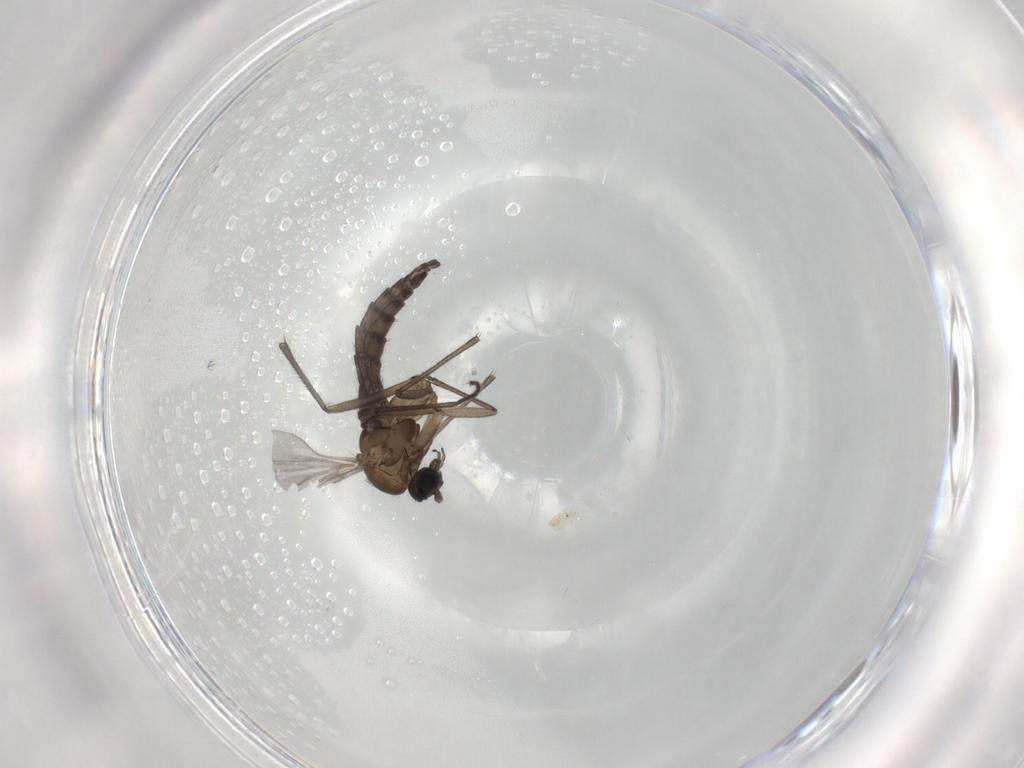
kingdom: Animalia
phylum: Arthropoda
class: Insecta
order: Diptera
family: Sciaridae
